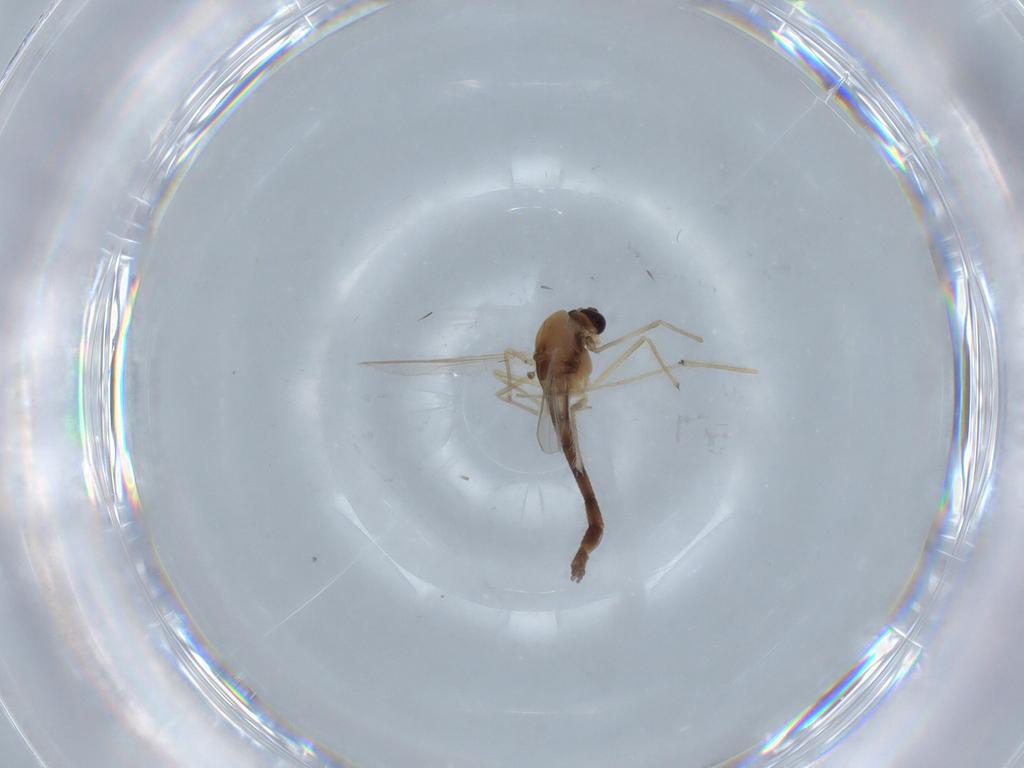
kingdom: Animalia
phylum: Arthropoda
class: Insecta
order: Diptera
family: Chironomidae
